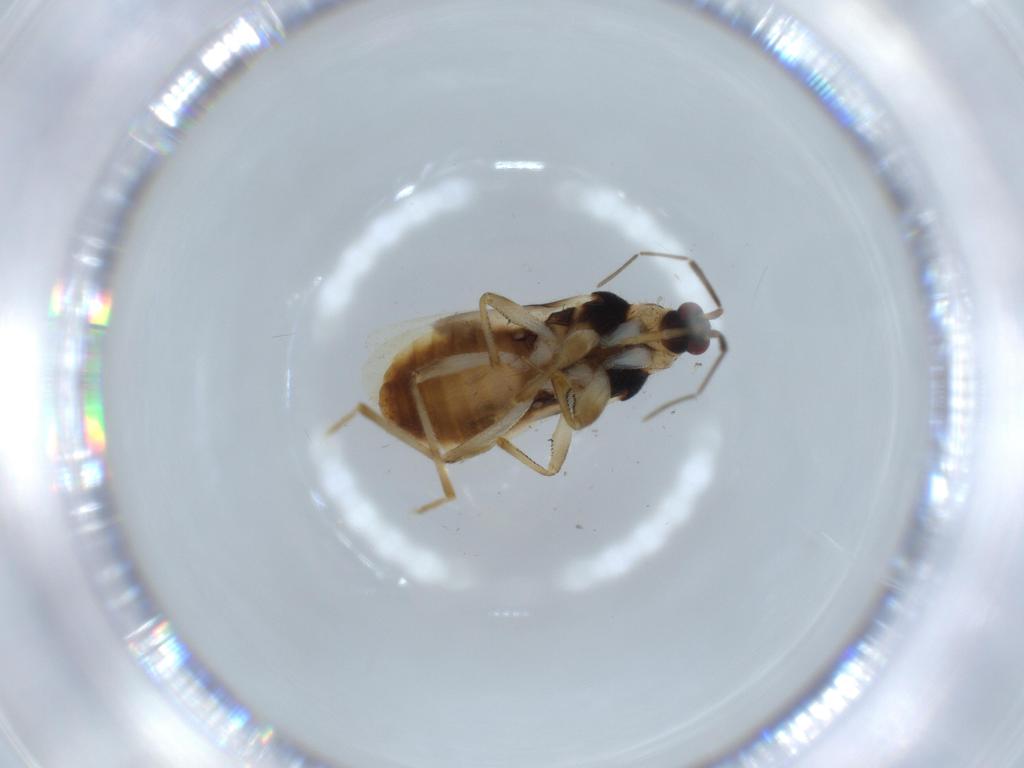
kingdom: Animalia
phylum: Arthropoda
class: Insecta
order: Hemiptera
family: Nabidae
